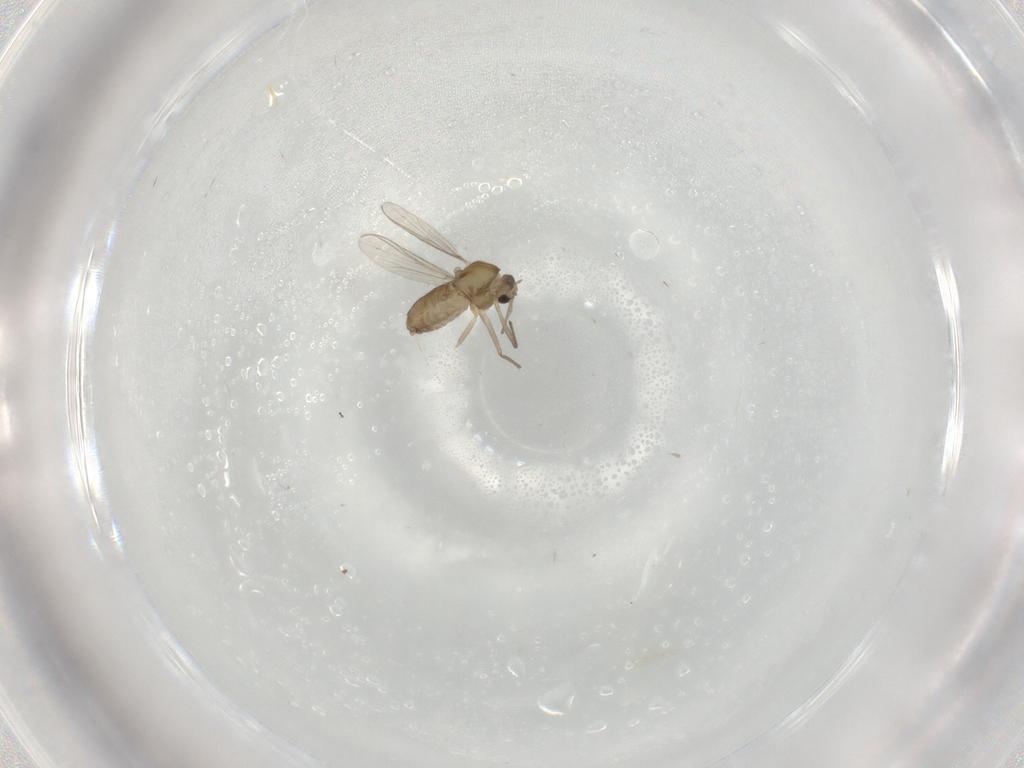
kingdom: Animalia
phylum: Arthropoda
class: Insecta
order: Diptera
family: Chironomidae
